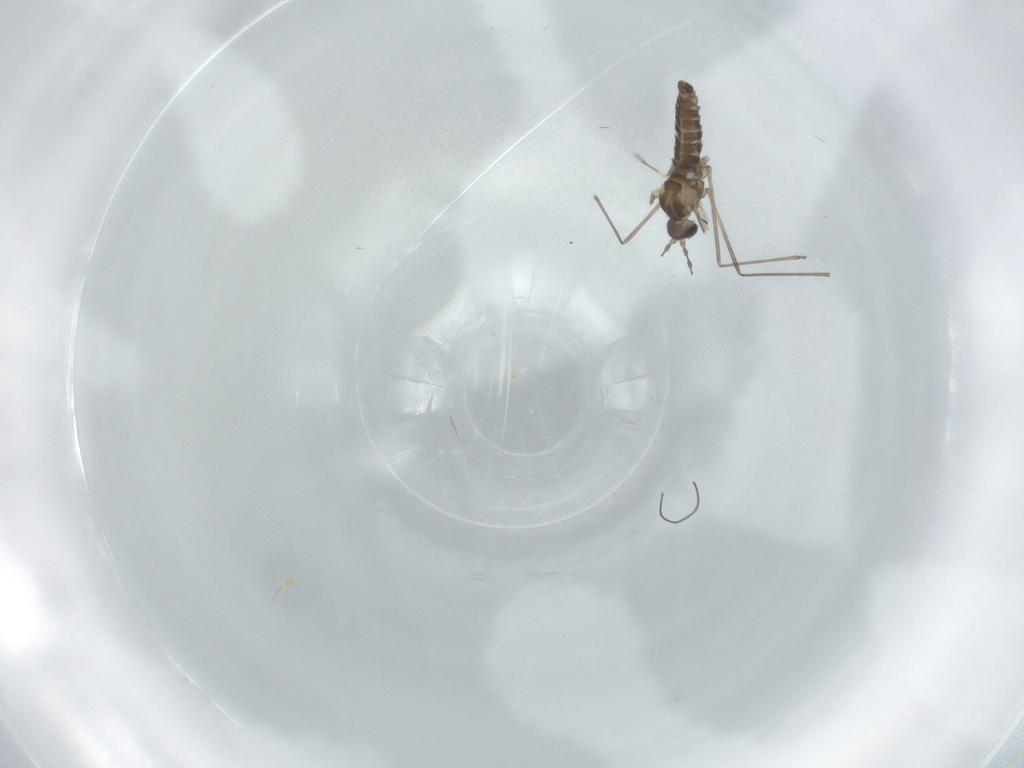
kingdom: Animalia
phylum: Arthropoda
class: Insecta
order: Diptera
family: Cecidomyiidae
